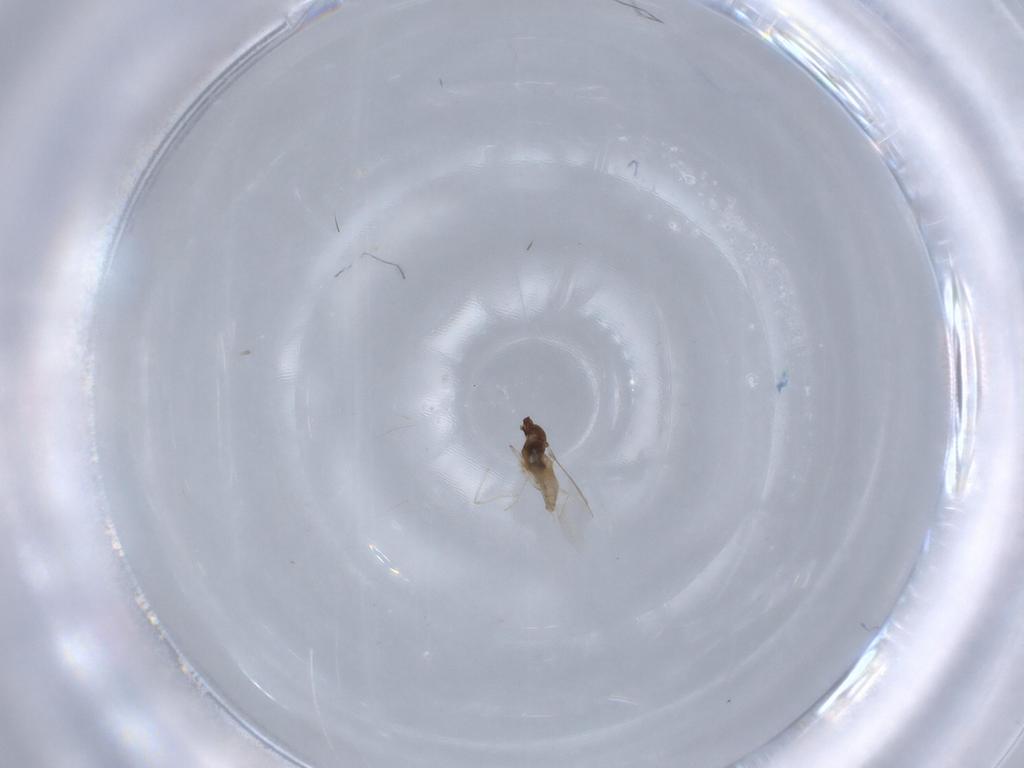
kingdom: Animalia
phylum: Arthropoda
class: Insecta
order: Diptera
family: Cecidomyiidae
